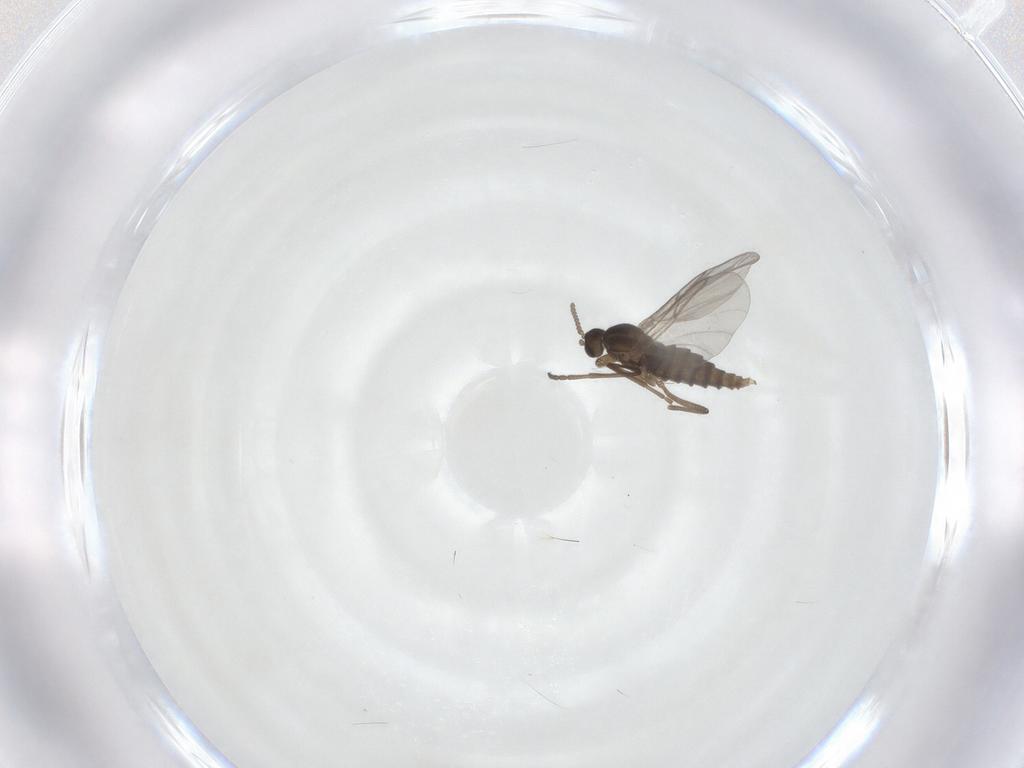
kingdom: Animalia
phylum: Arthropoda
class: Insecta
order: Diptera
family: Cecidomyiidae
